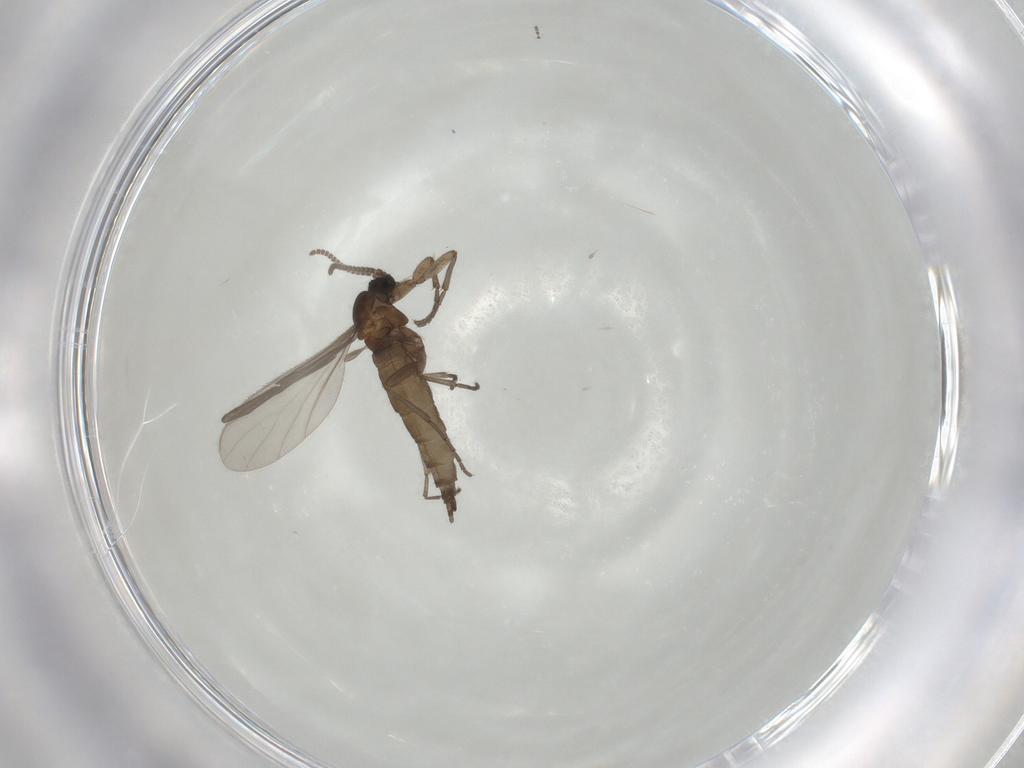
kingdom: Animalia
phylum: Arthropoda
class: Insecta
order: Diptera
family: Sciaridae
